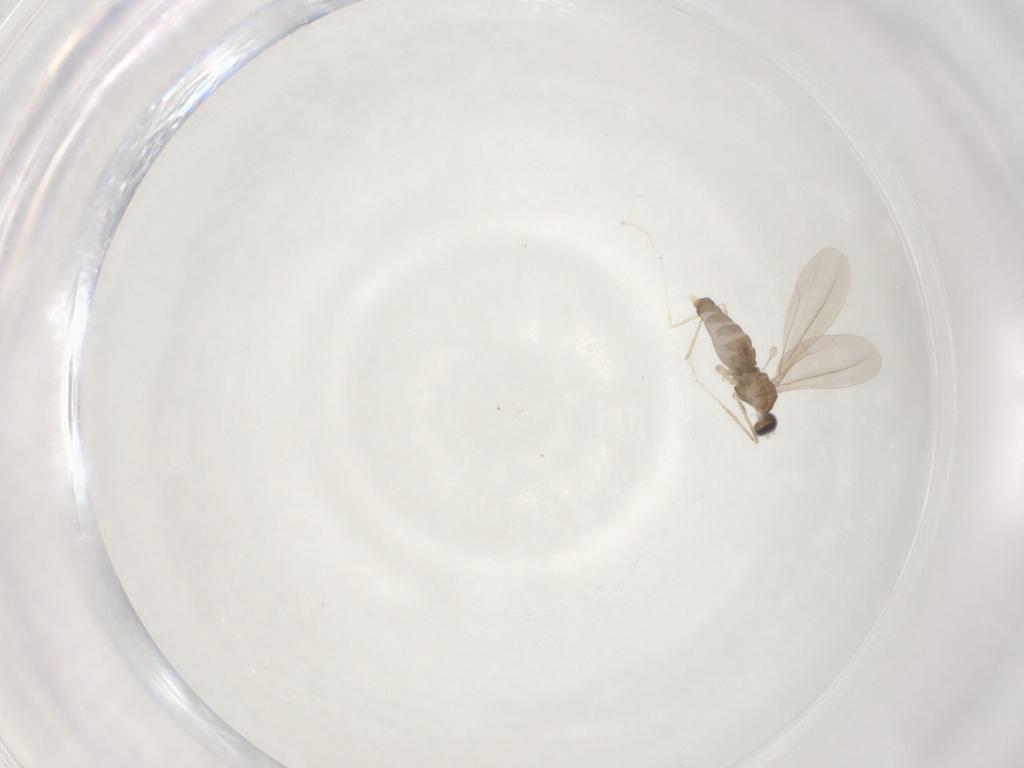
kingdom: Animalia
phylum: Arthropoda
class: Insecta
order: Diptera
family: Cecidomyiidae
